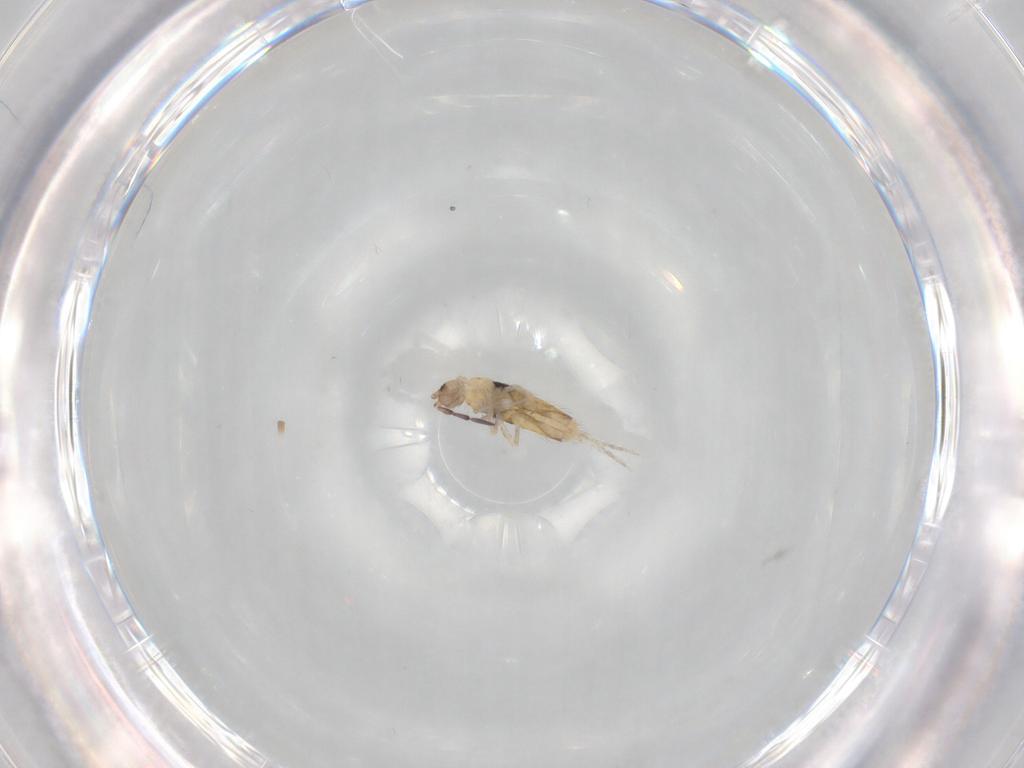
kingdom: Animalia
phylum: Arthropoda
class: Collembola
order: Entomobryomorpha
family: Entomobryidae
